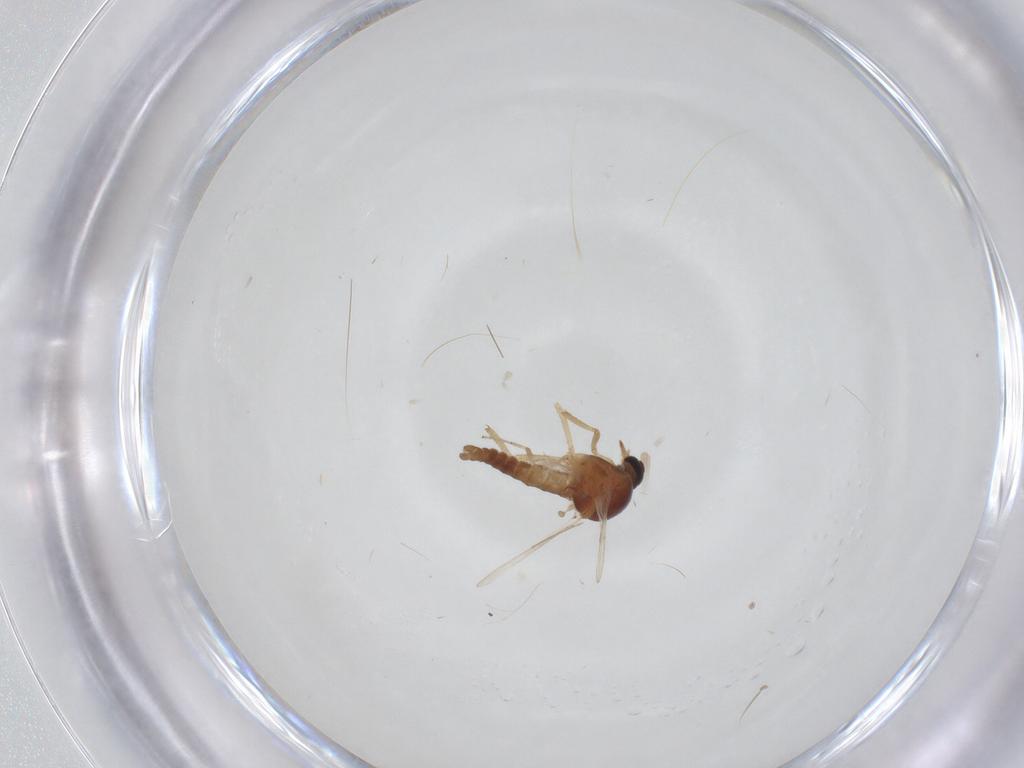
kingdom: Animalia
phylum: Arthropoda
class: Insecta
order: Diptera
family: Ceratopogonidae
